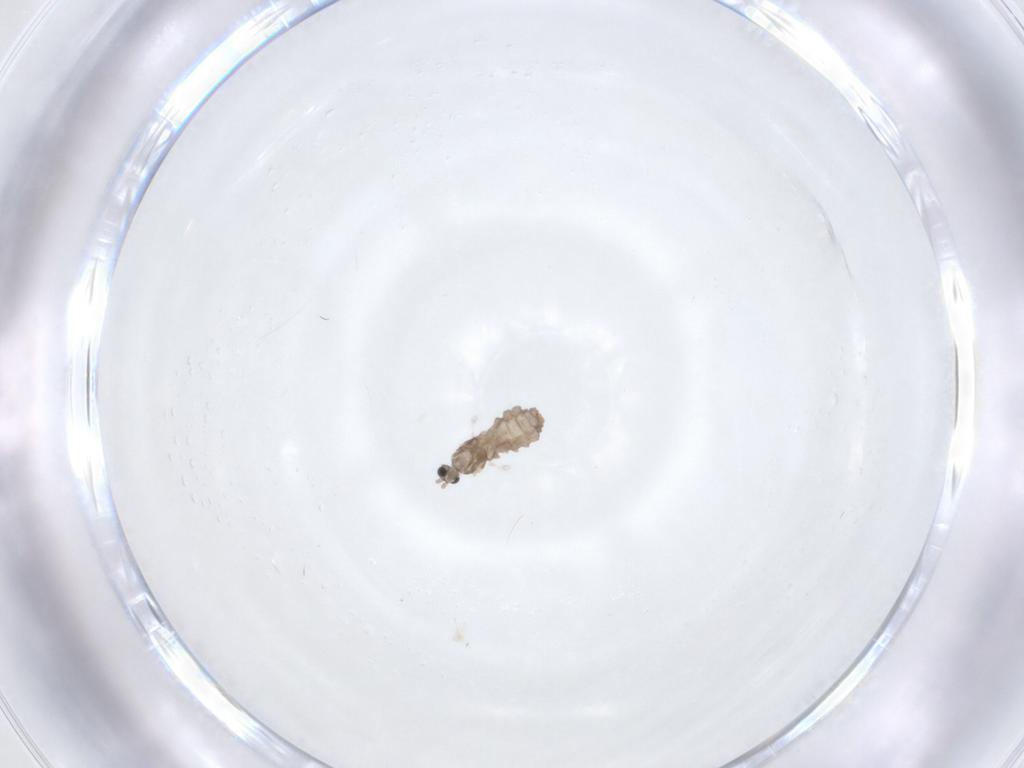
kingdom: Animalia
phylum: Arthropoda
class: Insecta
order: Diptera
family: Cecidomyiidae
